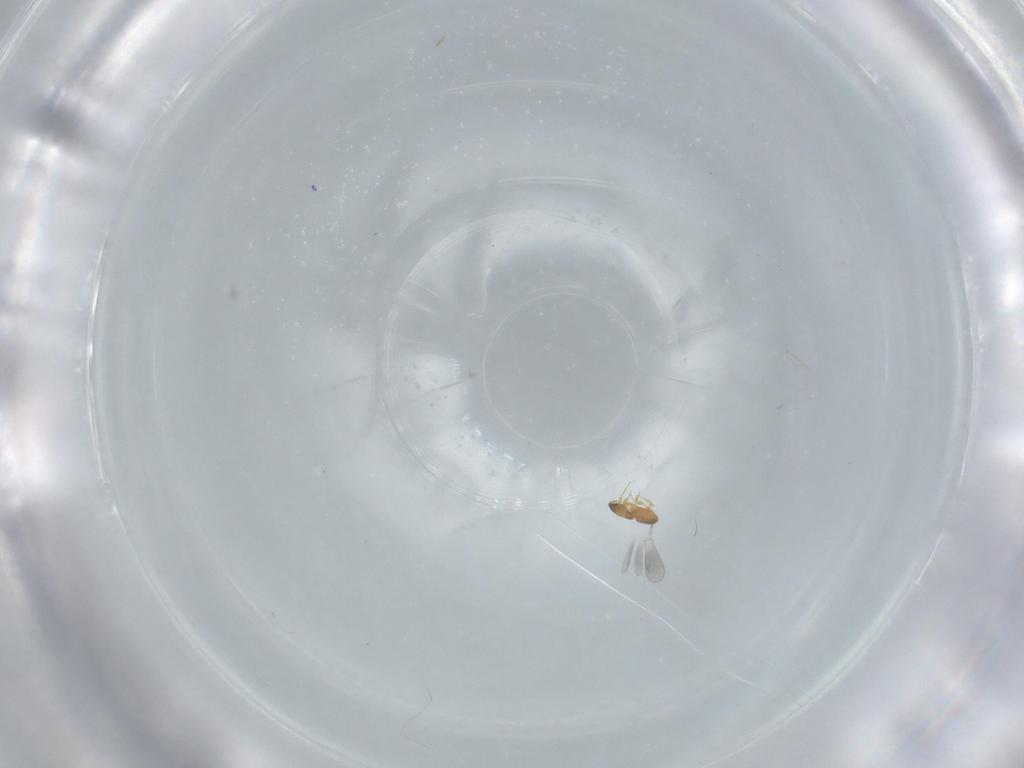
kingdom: Animalia
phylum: Arthropoda
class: Insecta
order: Hymenoptera
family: Platygastridae
